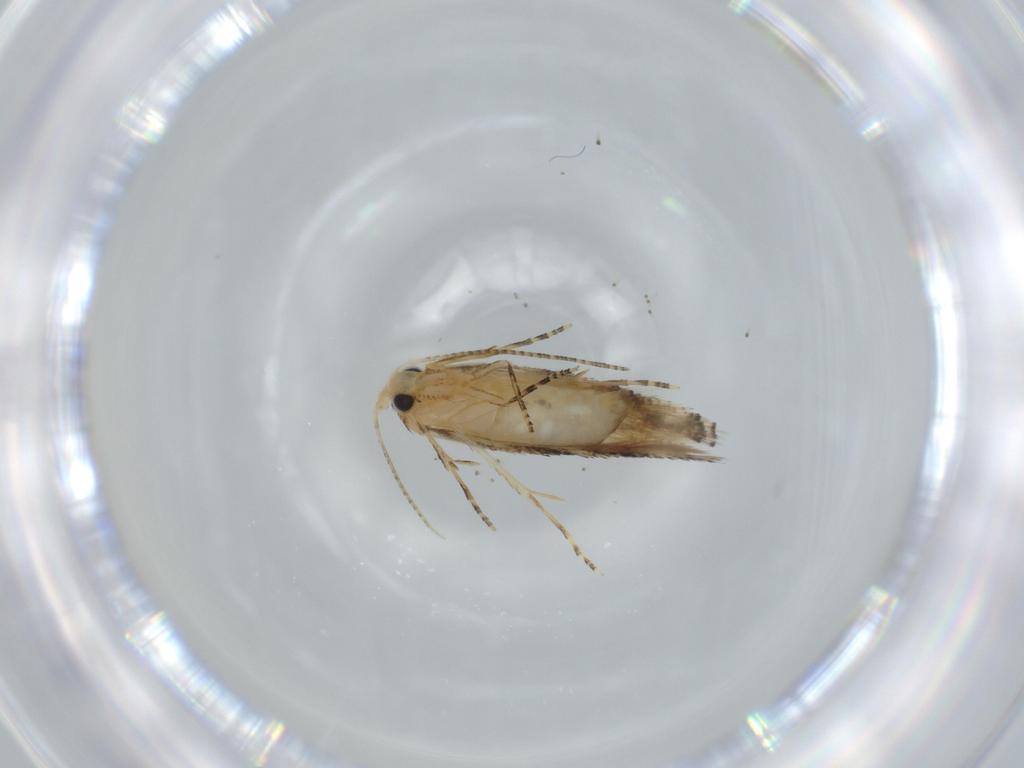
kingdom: Animalia
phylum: Arthropoda
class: Insecta
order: Lepidoptera
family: Bucculatricidae
